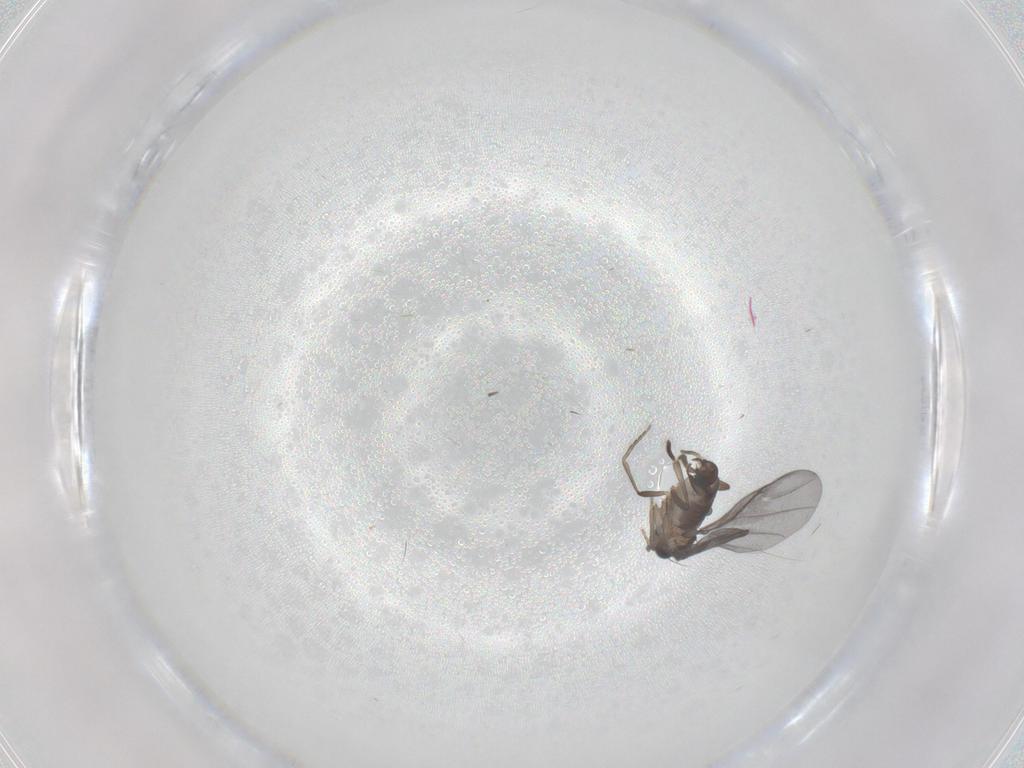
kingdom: Animalia
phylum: Arthropoda
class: Insecta
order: Diptera
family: Phoridae
